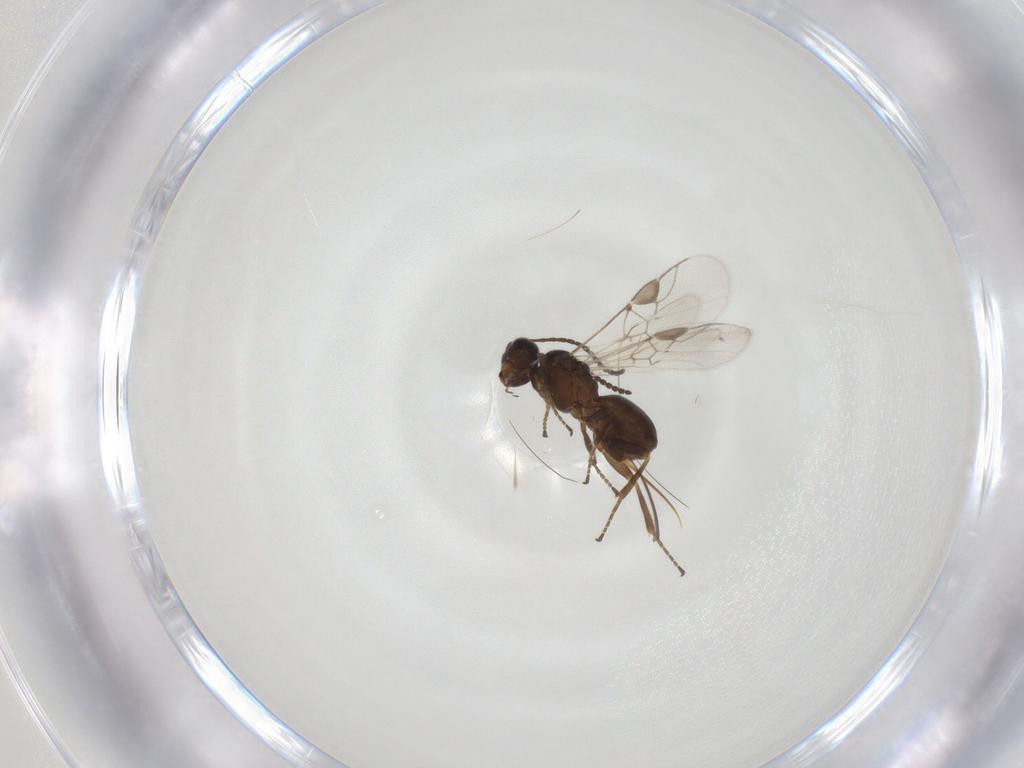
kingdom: Animalia
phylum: Arthropoda
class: Insecta
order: Hymenoptera
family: Braconidae
